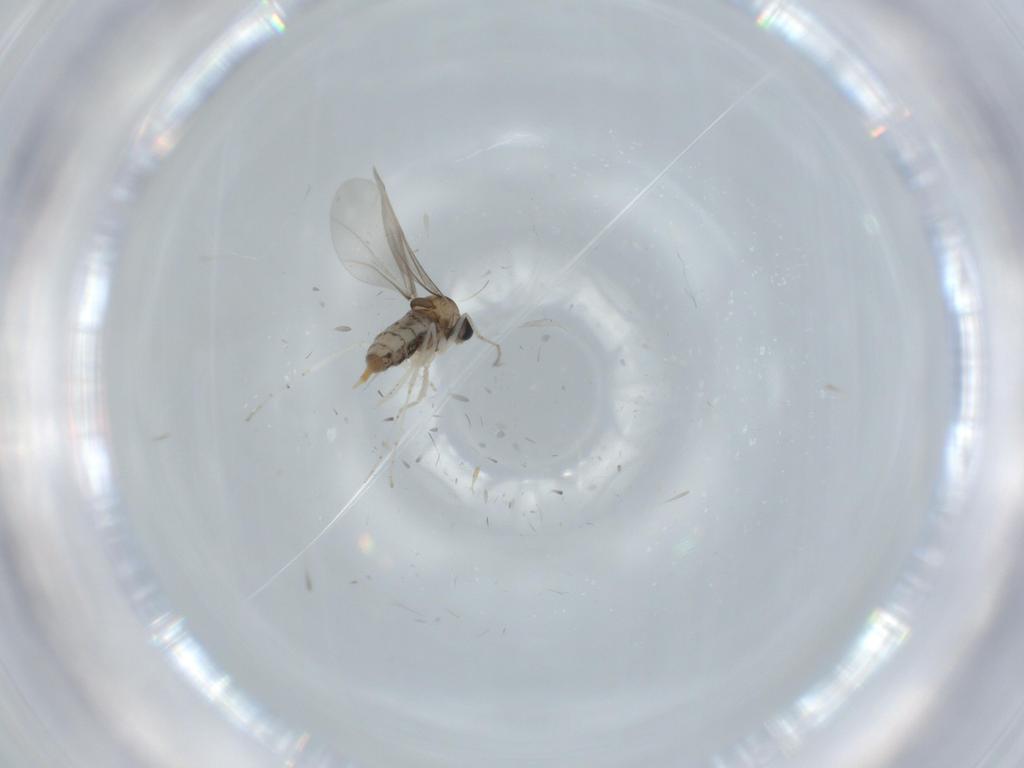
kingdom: Animalia
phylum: Arthropoda
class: Insecta
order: Diptera
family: Cecidomyiidae
